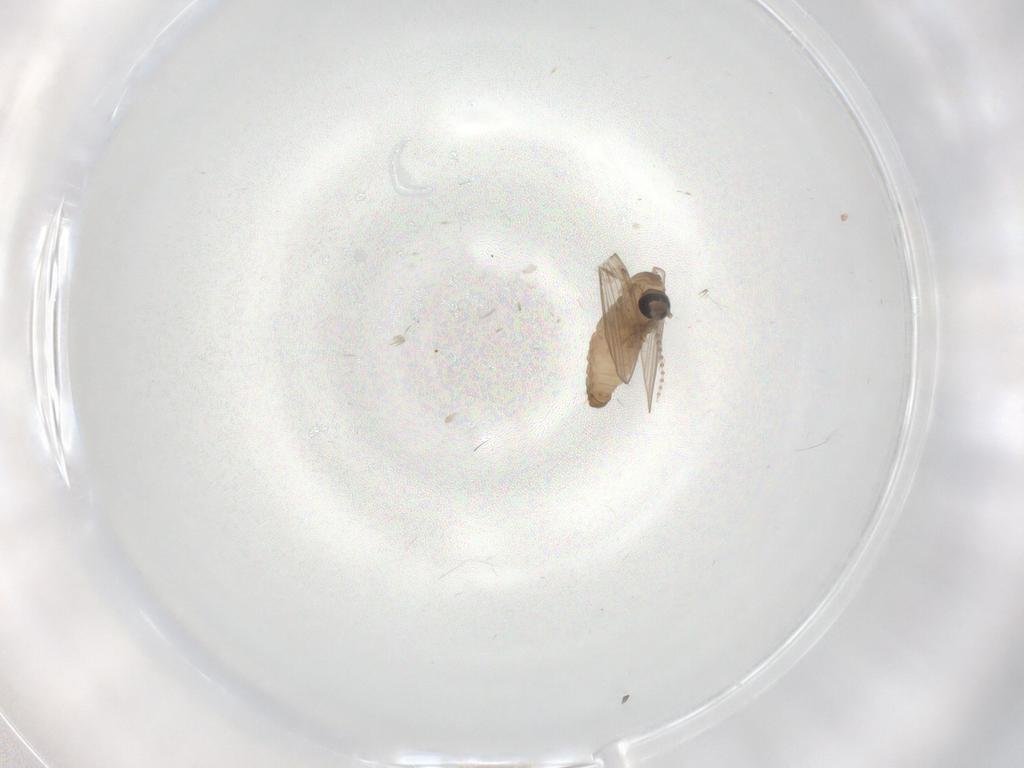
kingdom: Animalia
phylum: Arthropoda
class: Insecta
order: Diptera
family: Psychodidae
